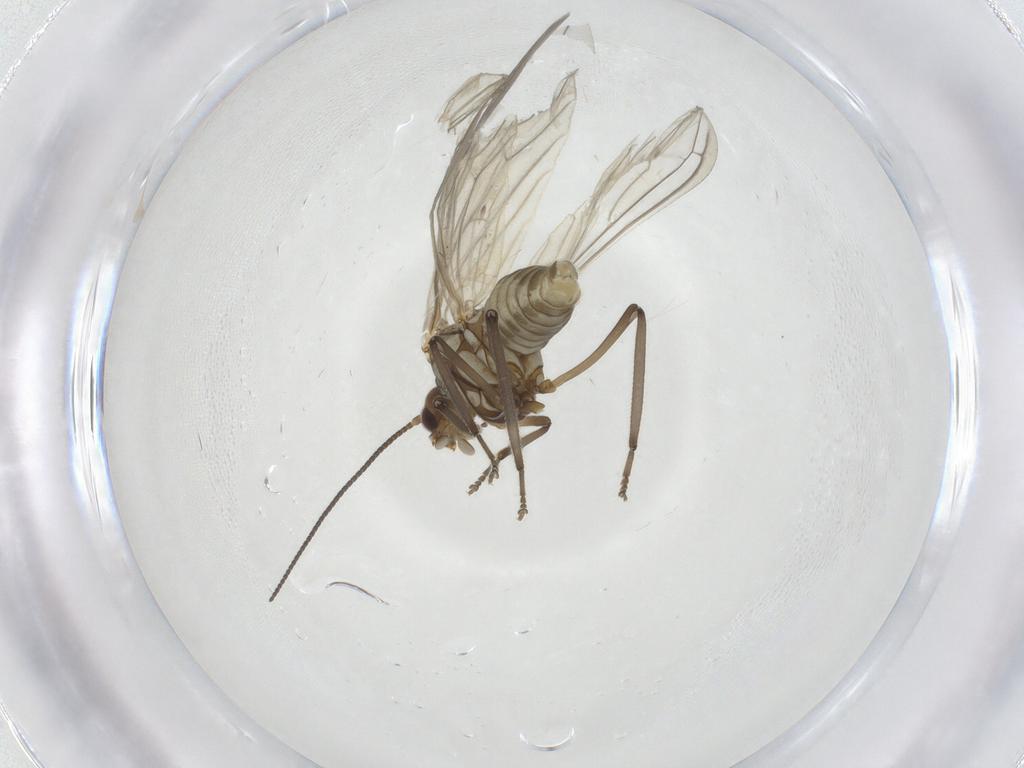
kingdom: Animalia
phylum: Arthropoda
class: Insecta
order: Neuroptera
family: Coniopterygidae
